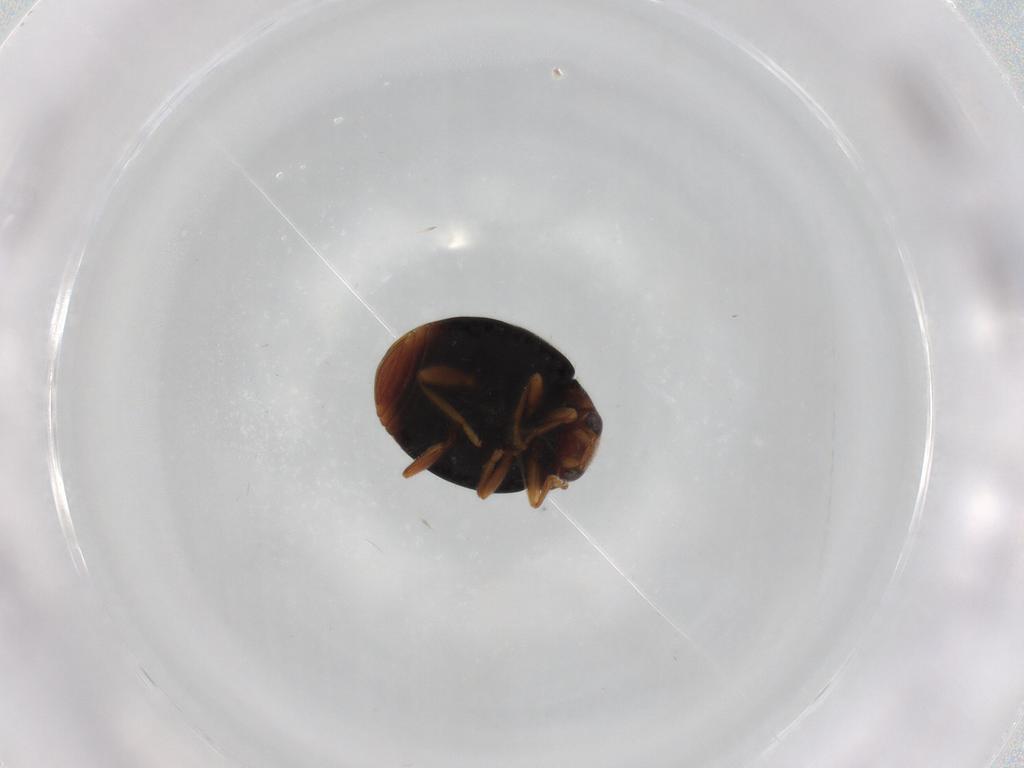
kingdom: Animalia
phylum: Arthropoda
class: Insecta
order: Coleoptera
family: Coccinellidae
